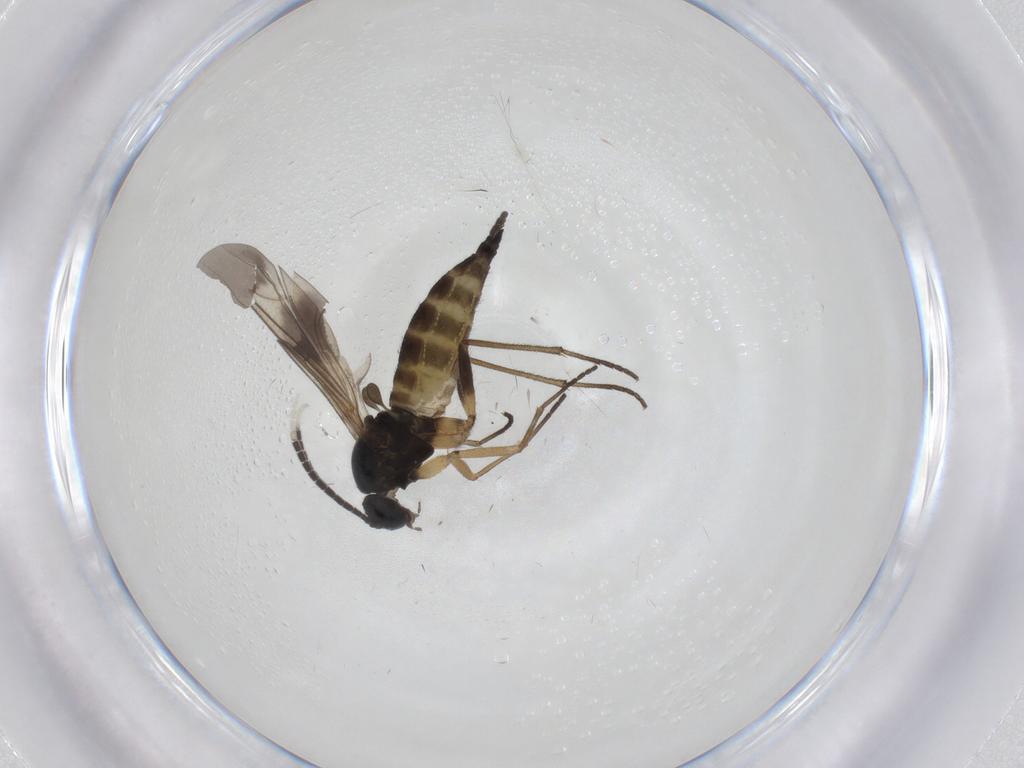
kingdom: Animalia
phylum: Arthropoda
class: Insecta
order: Diptera
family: Sciaridae
